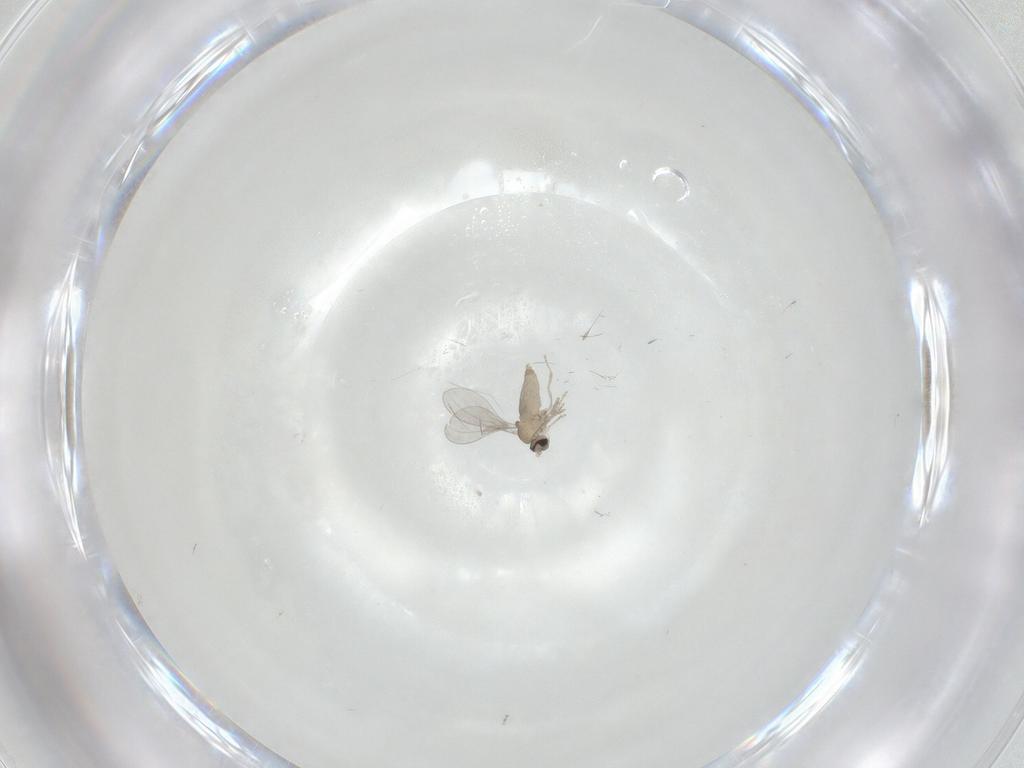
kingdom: Animalia
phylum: Arthropoda
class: Insecta
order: Diptera
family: Cecidomyiidae
